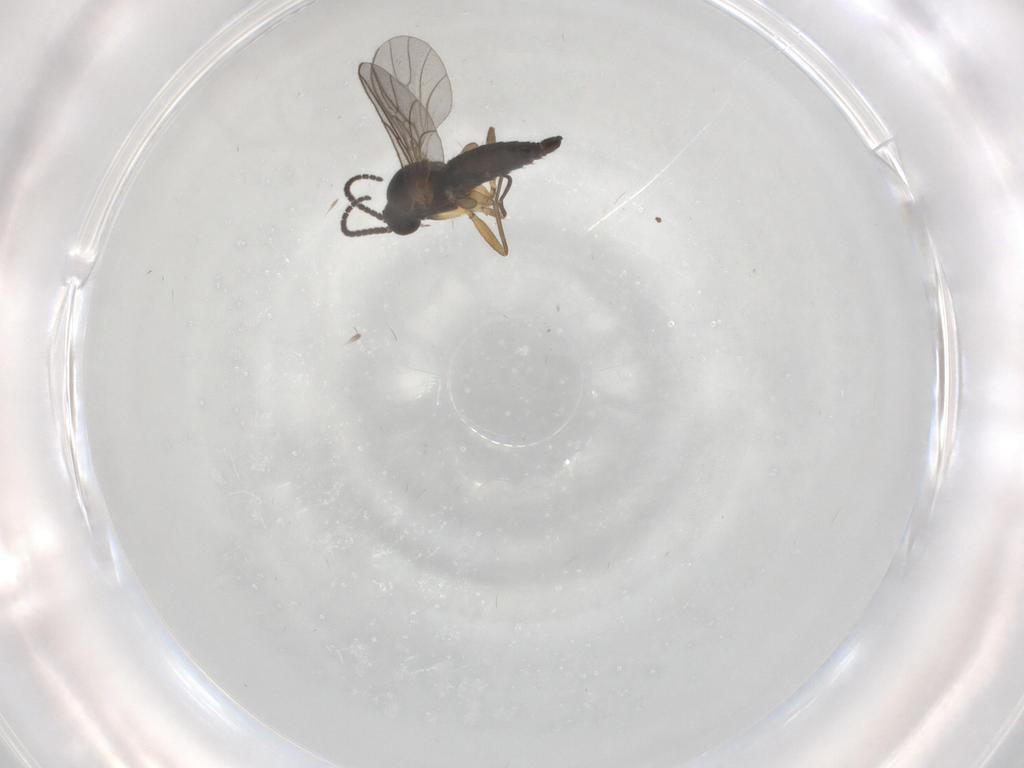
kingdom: Animalia
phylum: Arthropoda
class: Insecta
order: Diptera
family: Sciaridae
